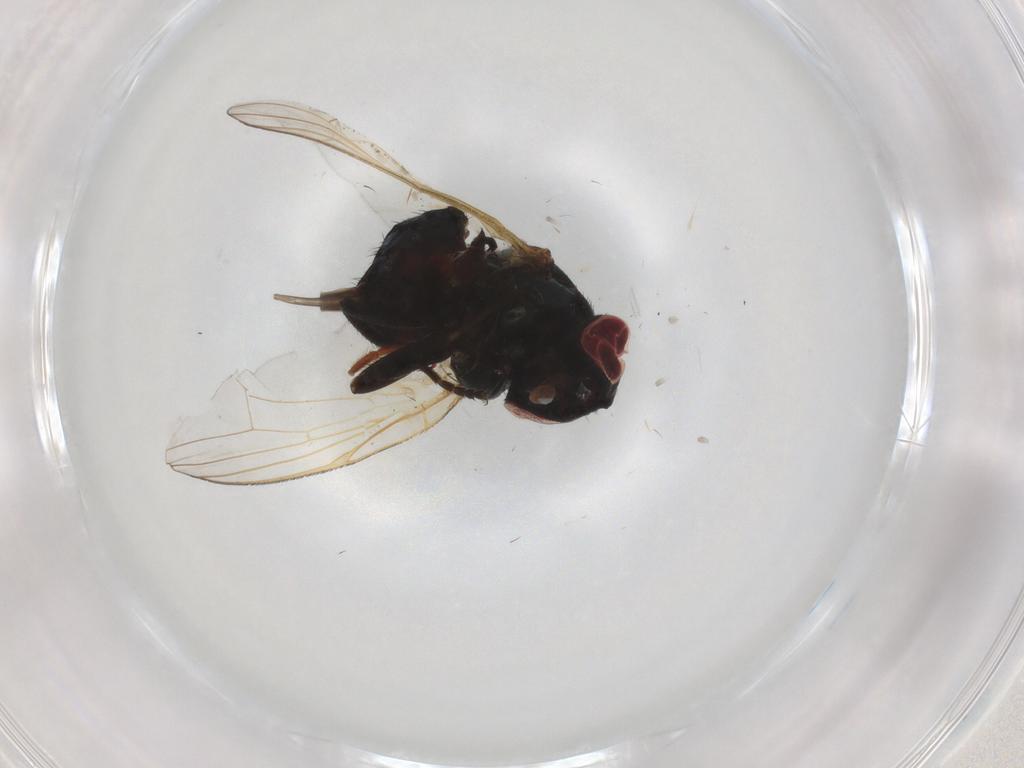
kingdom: Animalia
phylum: Arthropoda
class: Insecta
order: Diptera
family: Lonchaeidae
